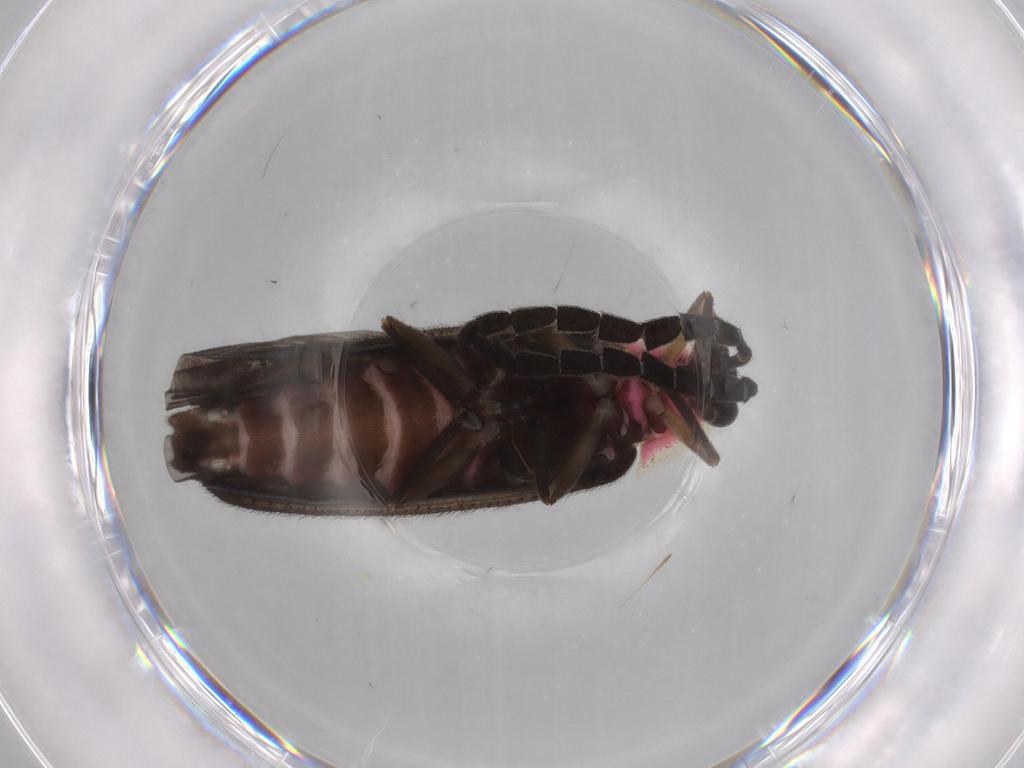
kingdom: Animalia
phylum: Arthropoda
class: Insecta
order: Coleoptera
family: Lampyridae
